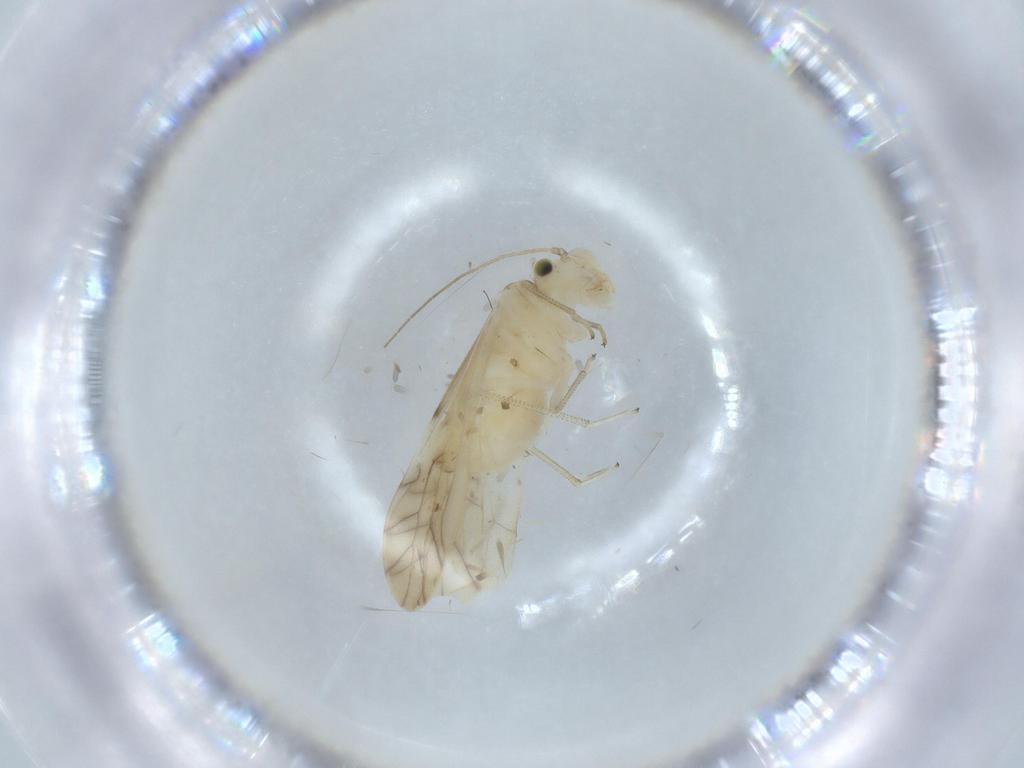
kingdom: Animalia
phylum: Arthropoda
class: Insecta
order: Psocodea
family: Caeciliusidae
